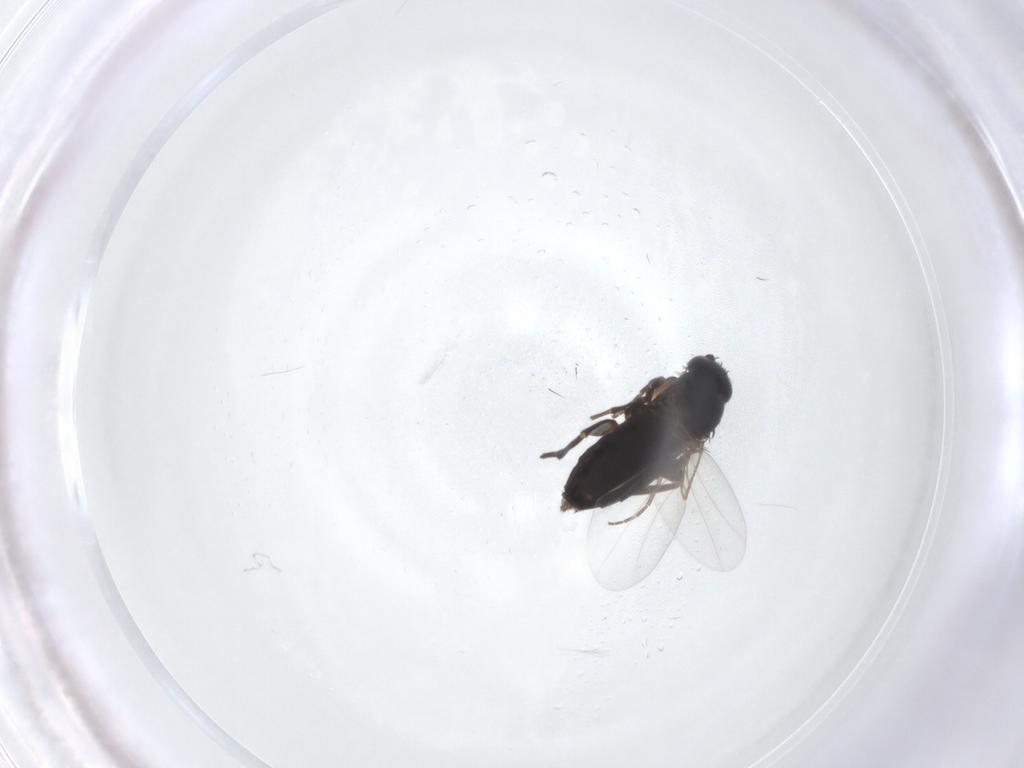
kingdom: Animalia
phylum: Arthropoda
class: Insecta
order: Diptera
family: Phoridae
